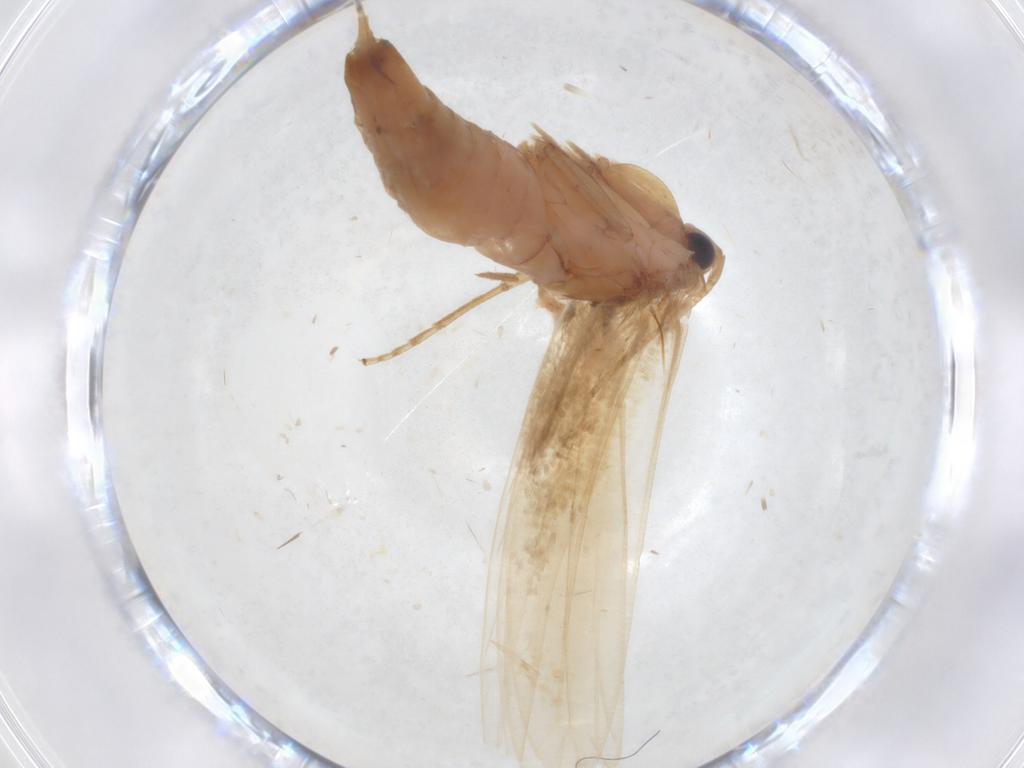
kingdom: Animalia
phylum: Arthropoda
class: Insecta
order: Lepidoptera
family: Tineidae
